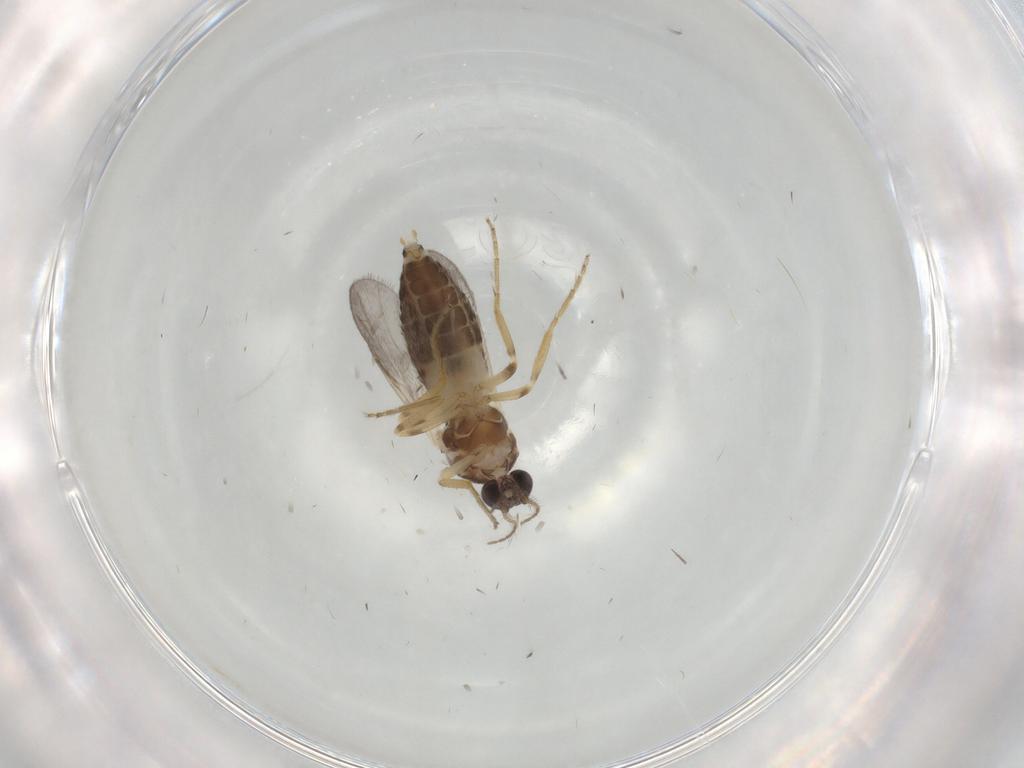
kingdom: Animalia
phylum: Arthropoda
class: Insecta
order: Diptera
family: Ceratopogonidae
